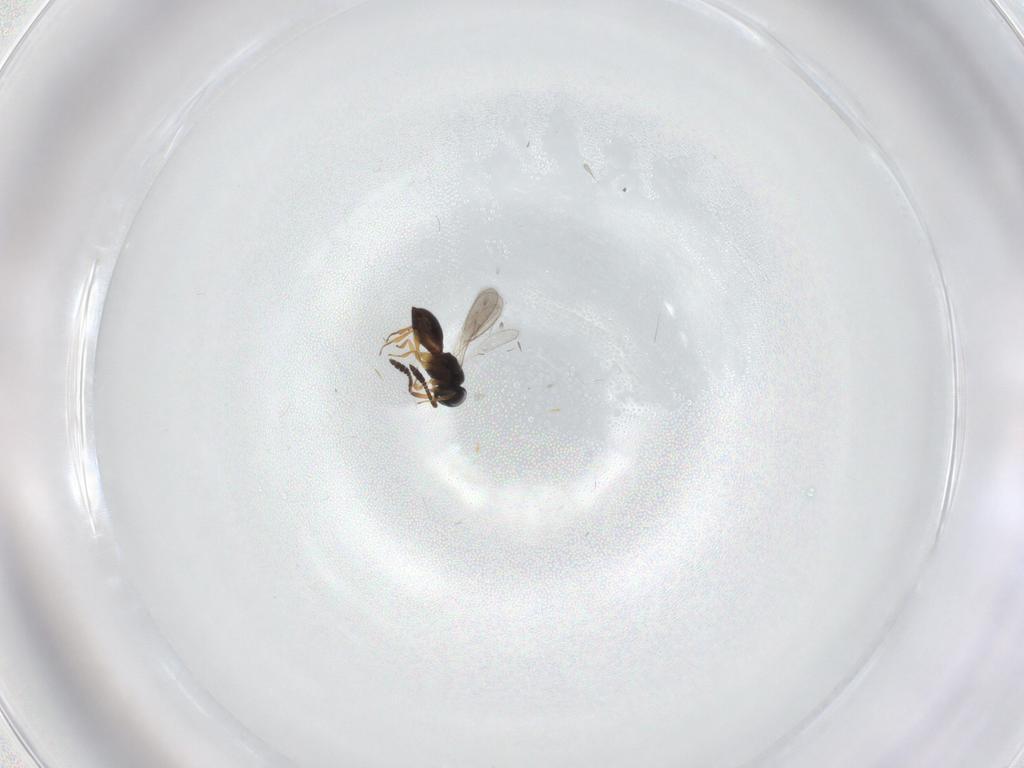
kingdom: Animalia
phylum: Arthropoda
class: Insecta
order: Hymenoptera
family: Scelionidae
